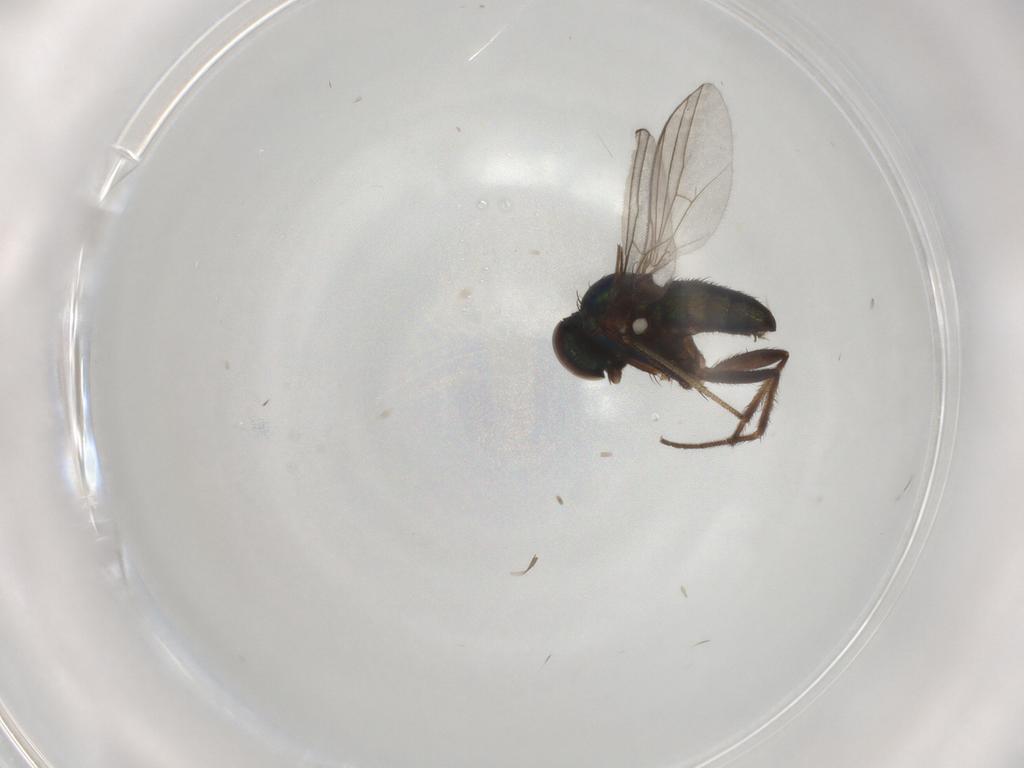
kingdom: Animalia
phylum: Arthropoda
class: Insecta
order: Diptera
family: Dolichopodidae
